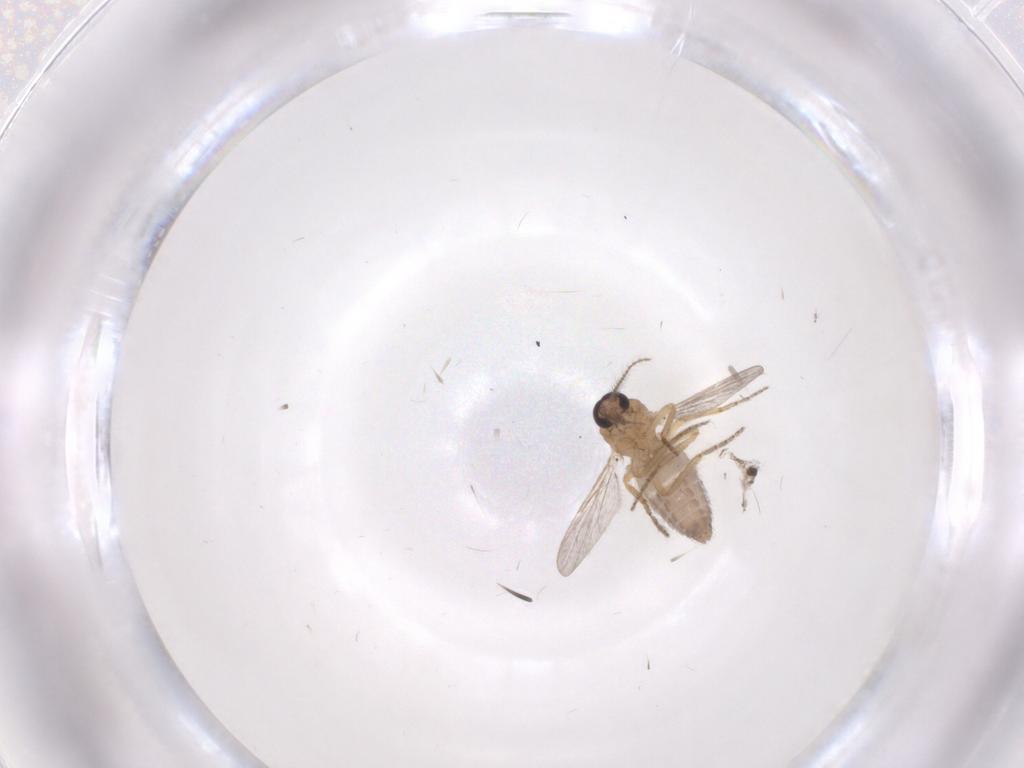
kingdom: Animalia
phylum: Arthropoda
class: Insecta
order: Diptera
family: Ceratopogonidae
